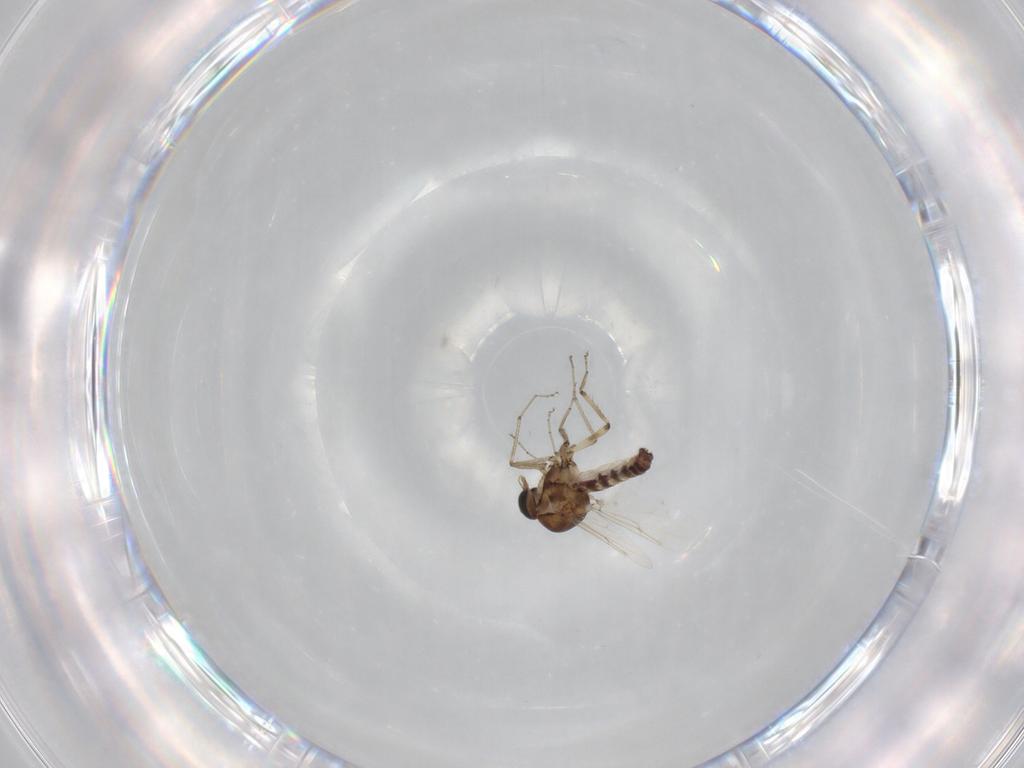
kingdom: Animalia
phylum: Arthropoda
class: Insecta
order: Diptera
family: Ceratopogonidae
